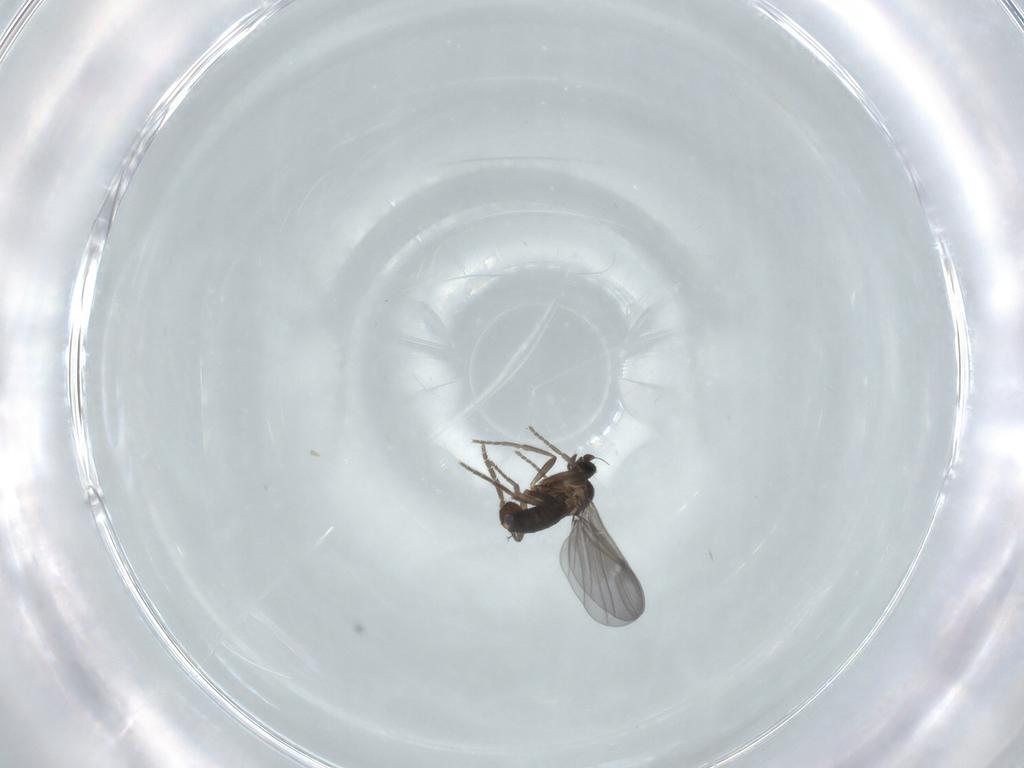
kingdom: Animalia
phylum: Arthropoda
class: Insecta
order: Diptera
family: Phoridae
